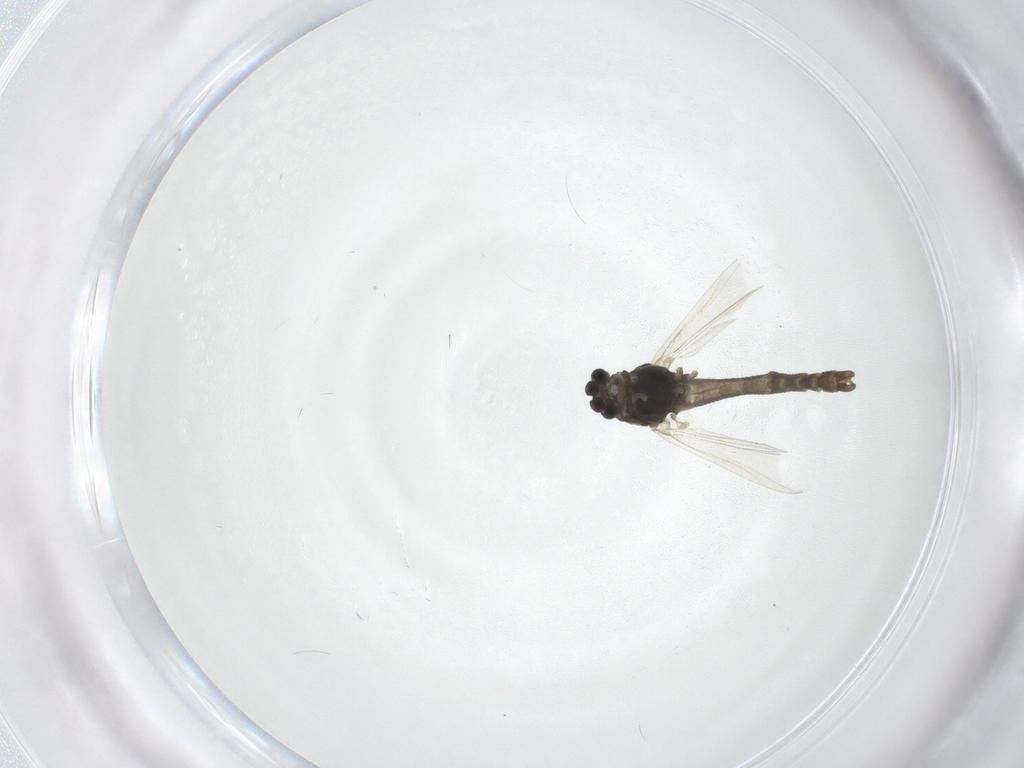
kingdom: Animalia
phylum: Arthropoda
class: Insecta
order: Diptera
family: Chironomidae
